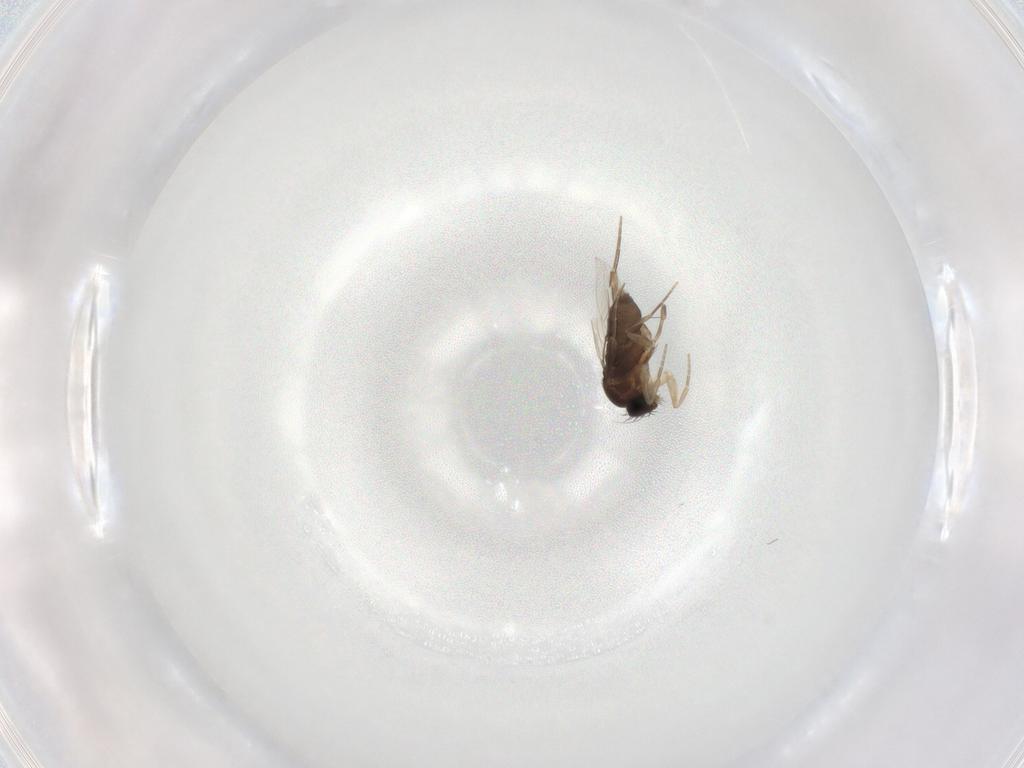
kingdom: Animalia
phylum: Arthropoda
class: Insecta
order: Diptera
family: Phoridae
